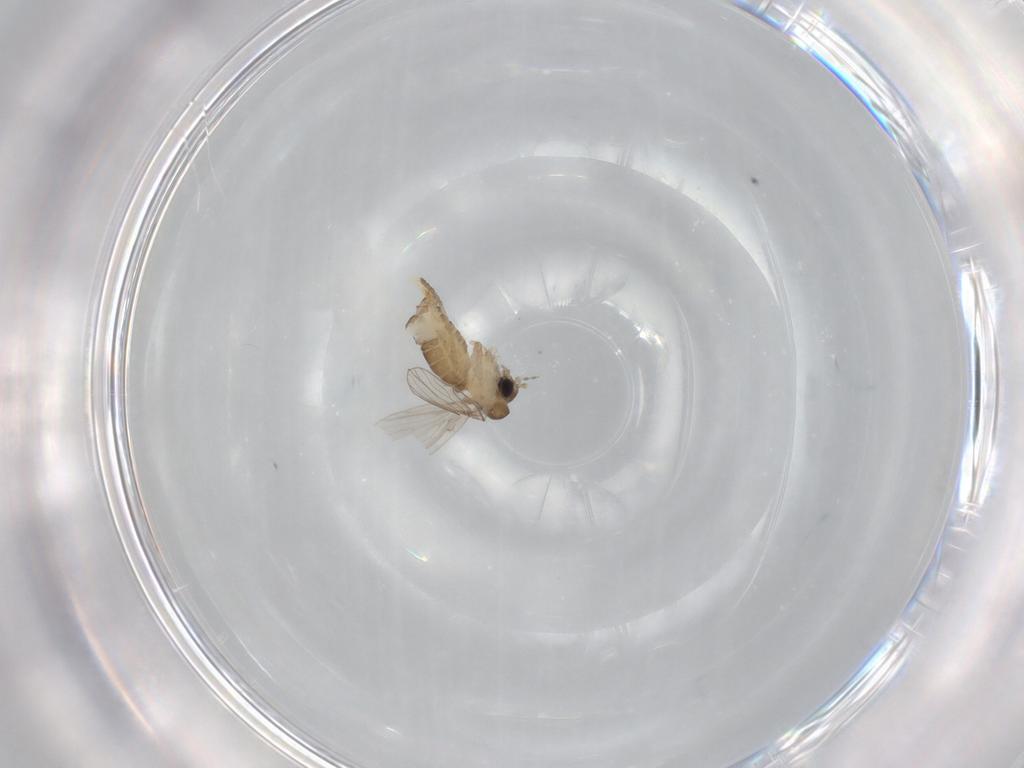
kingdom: Animalia
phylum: Arthropoda
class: Insecta
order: Diptera
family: Psychodidae
